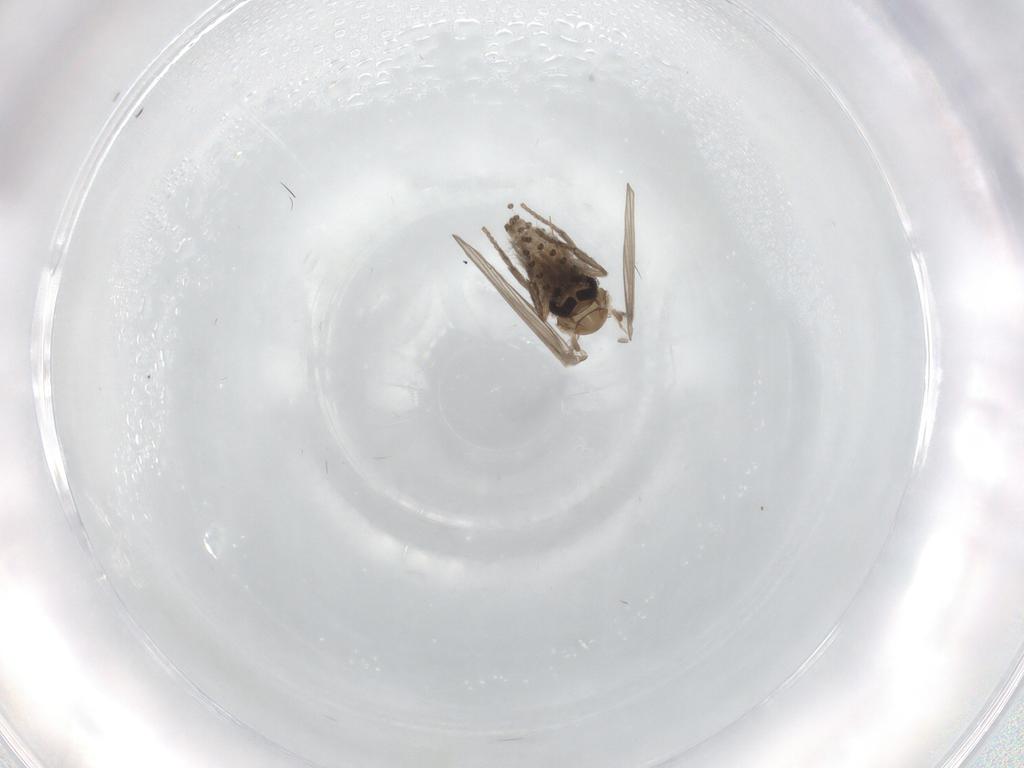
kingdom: Animalia
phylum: Arthropoda
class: Insecta
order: Diptera
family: Psychodidae
